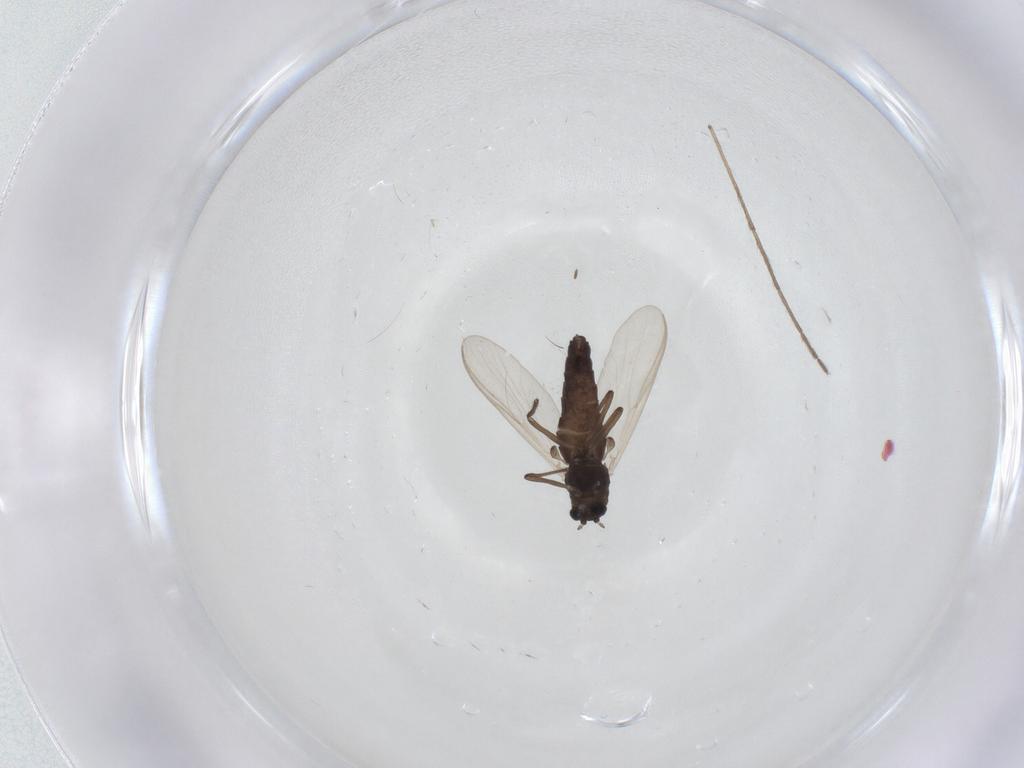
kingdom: Animalia
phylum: Arthropoda
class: Insecta
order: Diptera
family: Chironomidae
